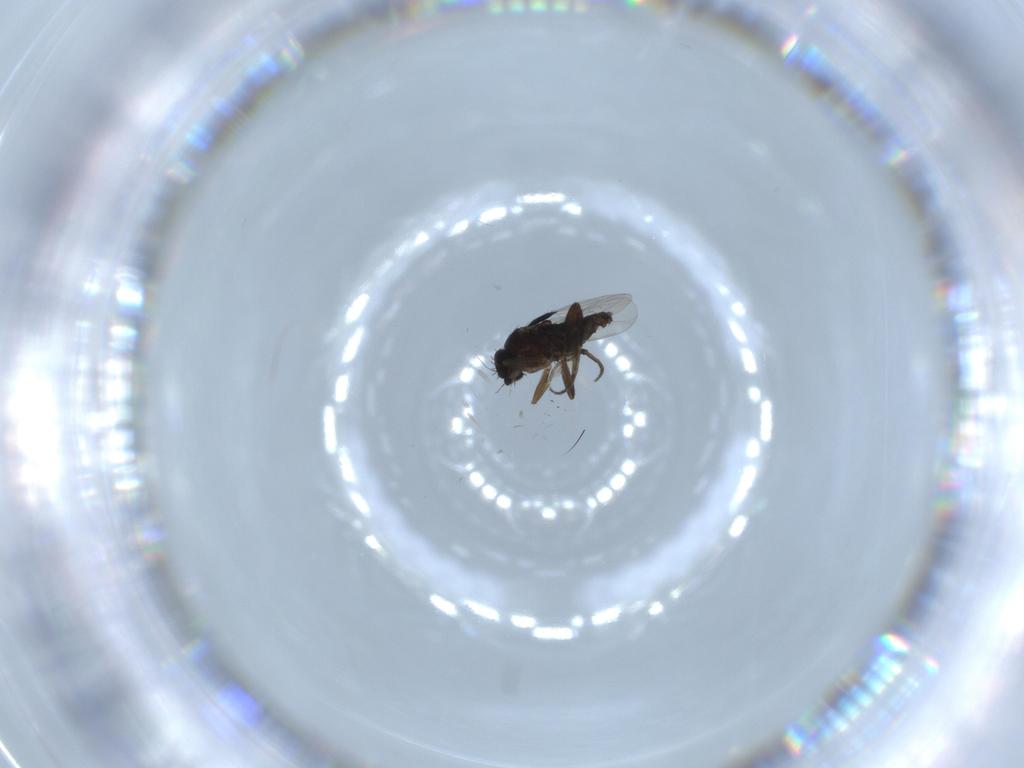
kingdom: Animalia
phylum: Arthropoda
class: Insecta
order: Diptera
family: Phoridae
